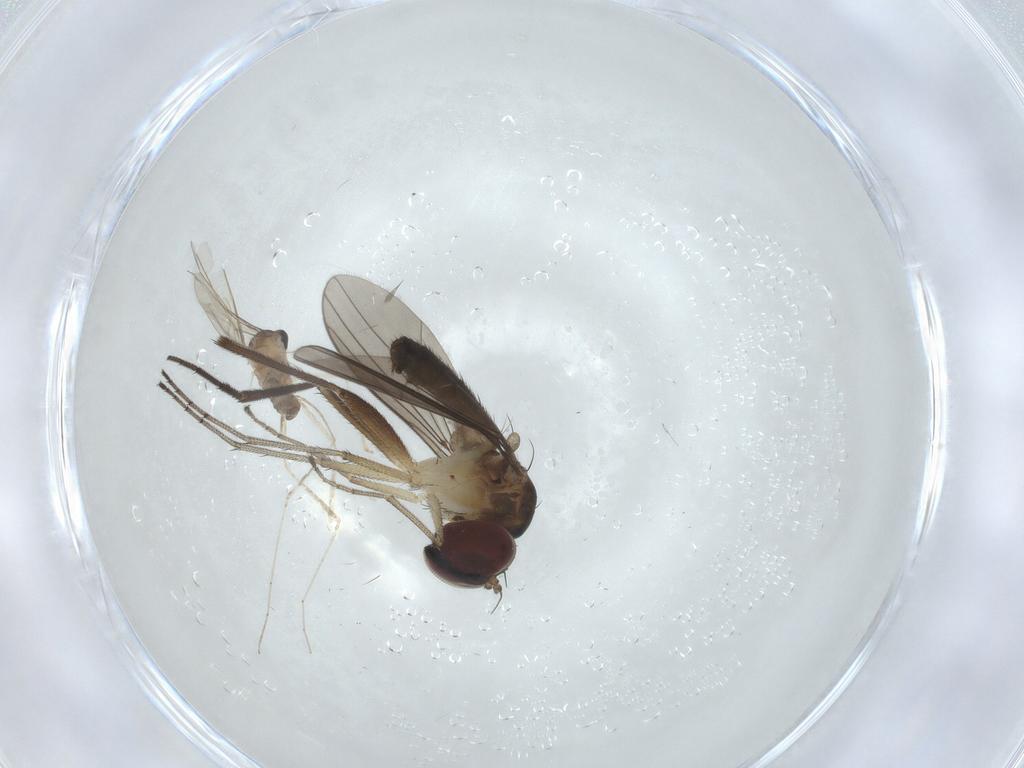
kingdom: Animalia
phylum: Arthropoda
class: Insecta
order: Diptera
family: Dolichopodidae
